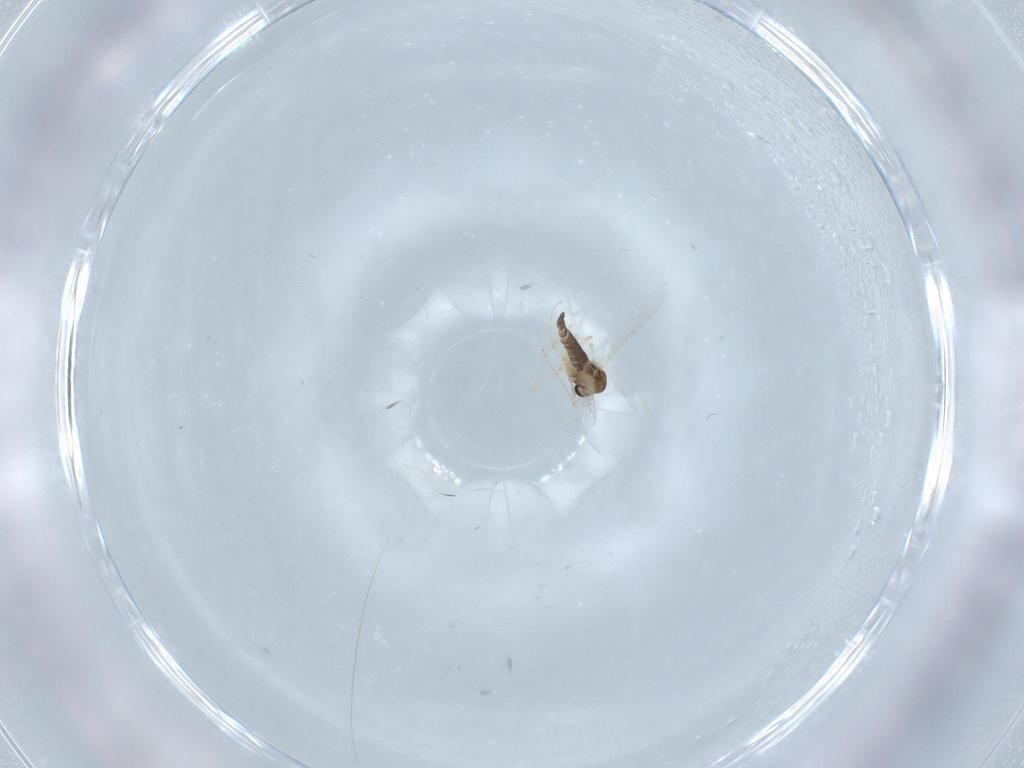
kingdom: Animalia
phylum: Arthropoda
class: Insecta
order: Diptera
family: Chironomidae
